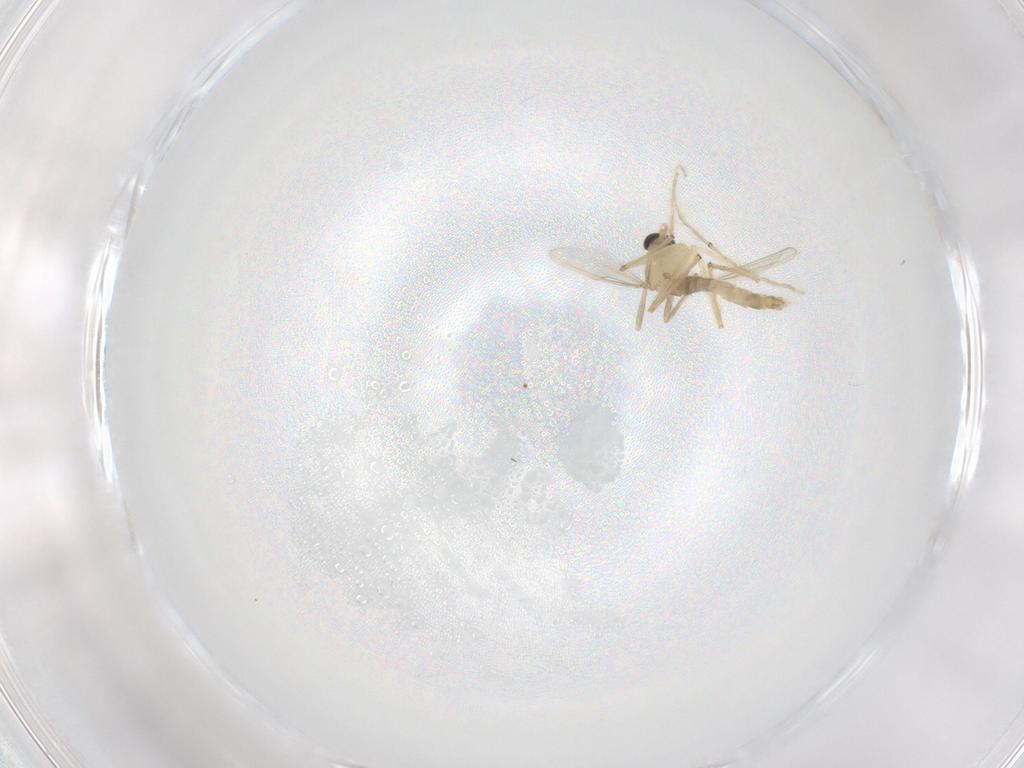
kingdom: Animalia
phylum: Arthropoda
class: Insecta
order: Diptera
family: Chironomidae
